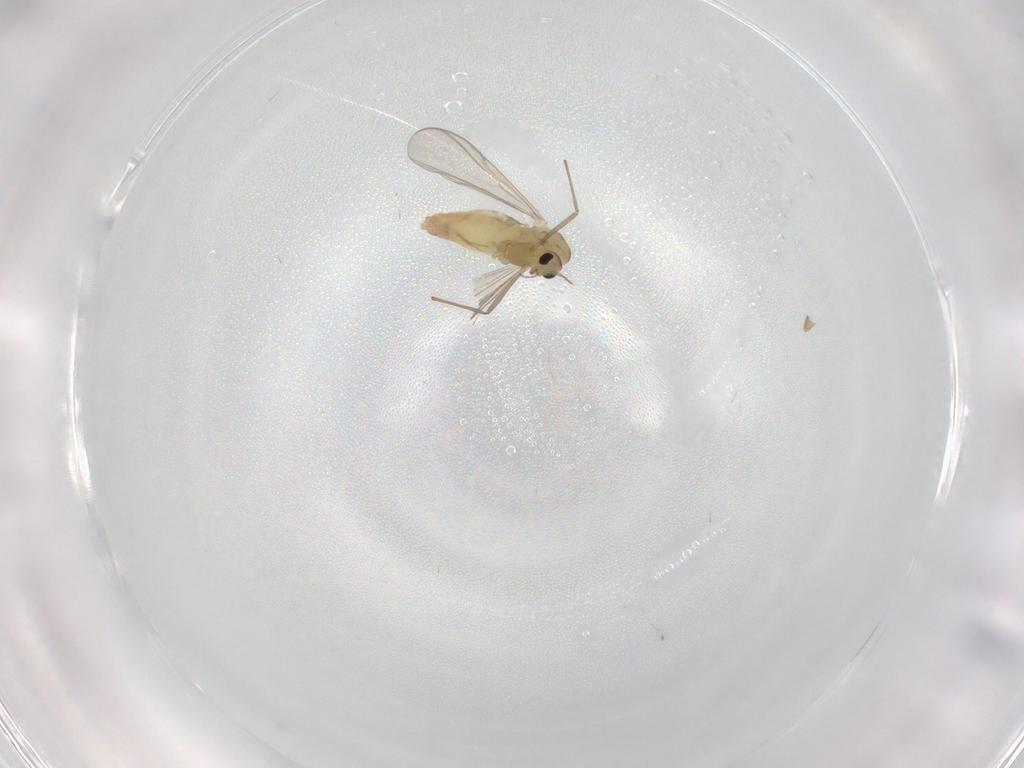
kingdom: Animalia
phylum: Arthropoda
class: Insecta
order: Diptera
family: Chironomidae
